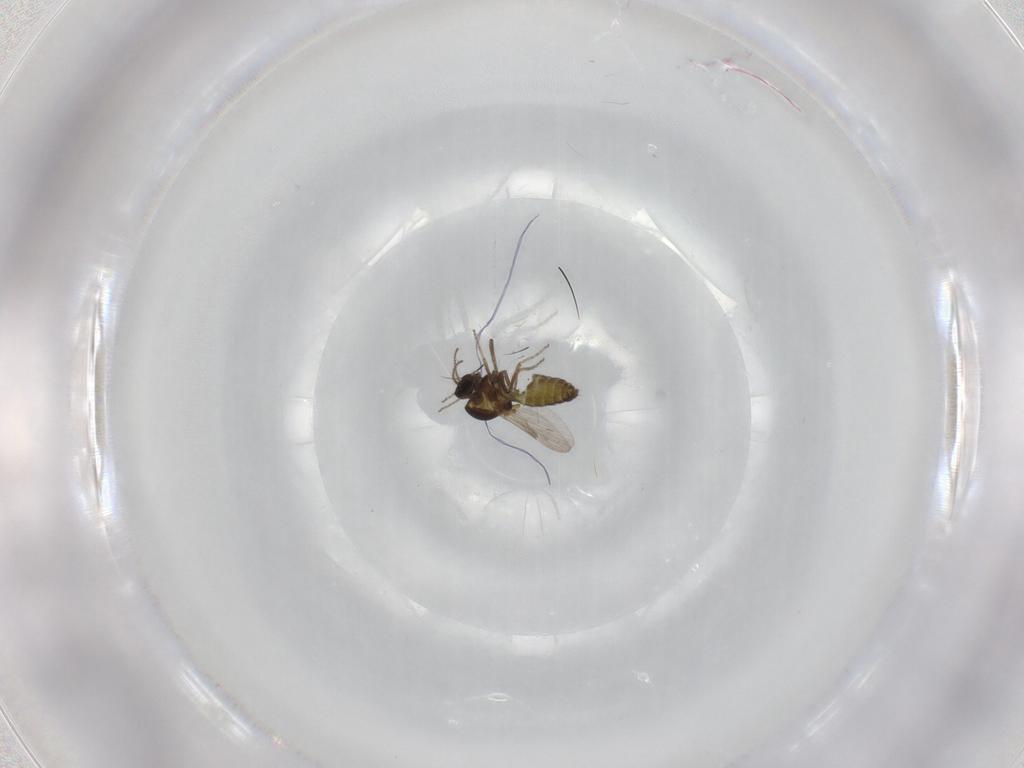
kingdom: Animalia
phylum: Arthropoda
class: Insecta
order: Diptera
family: Ceratopogonidae
